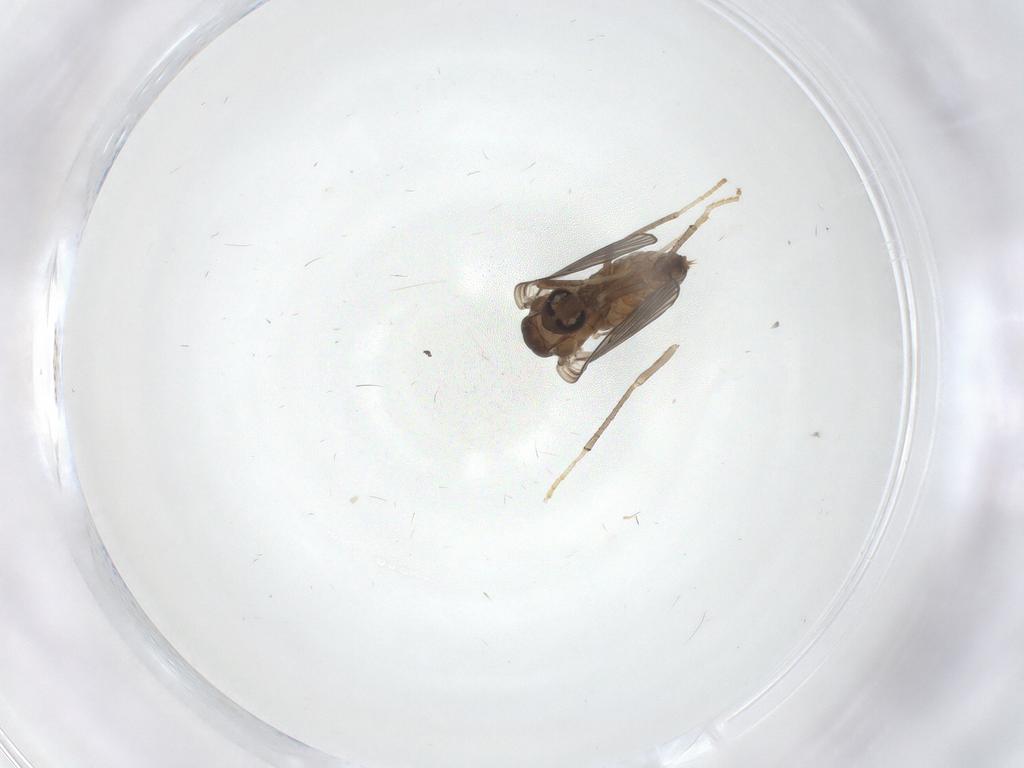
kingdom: Animalia
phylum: Arthropoda
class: Insecta
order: Diptera
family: Psychodidae
